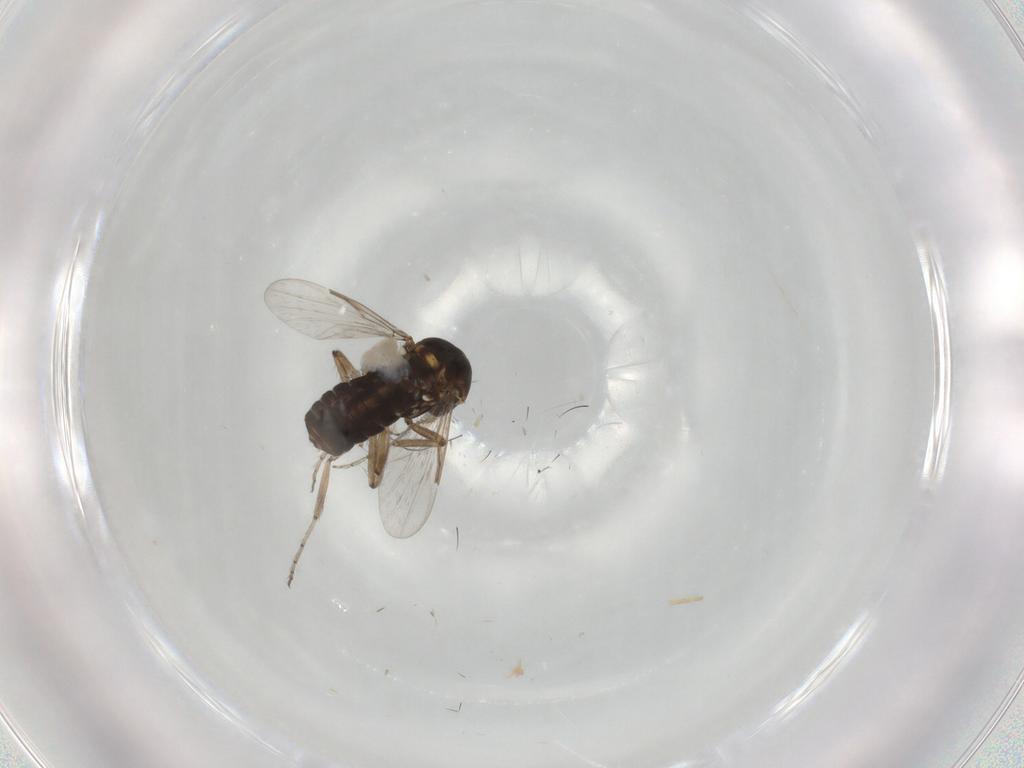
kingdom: Animalia
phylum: Arthropoda
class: Insecta
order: Diptera
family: Ceratopogonidae
